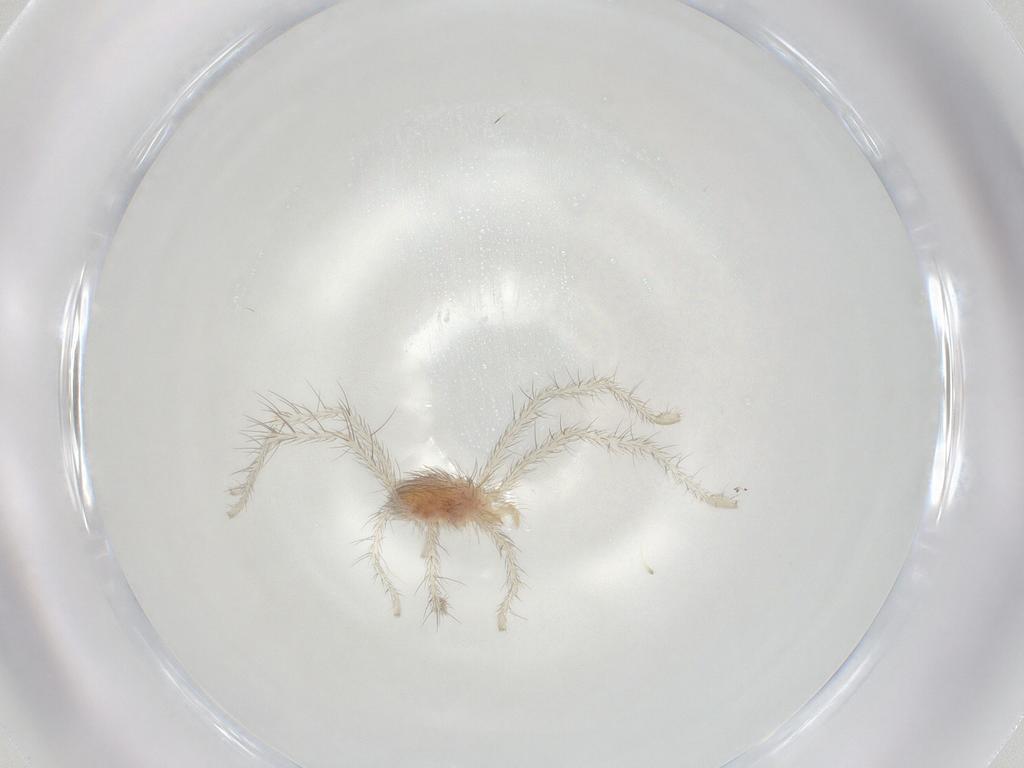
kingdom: Animalia
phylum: Arthropoda
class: Arachnida
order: Trombidiformes
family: Erythraeidae
